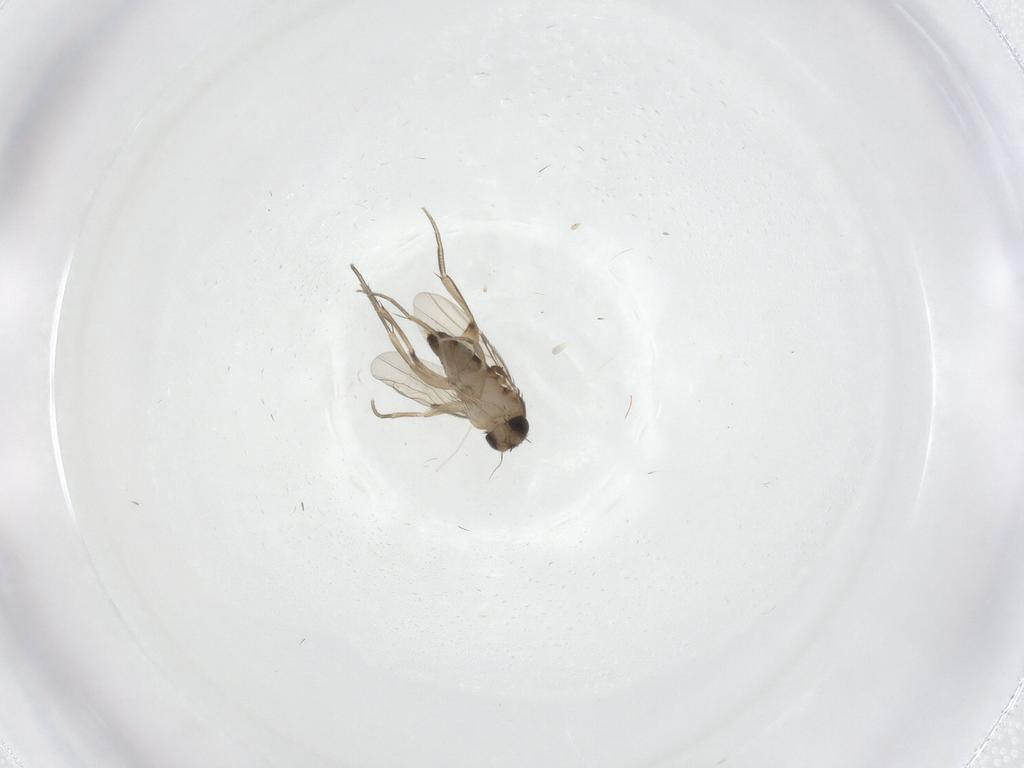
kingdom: Animalia
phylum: Arthropoda
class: Insecta
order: Diptera
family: Phoridae
